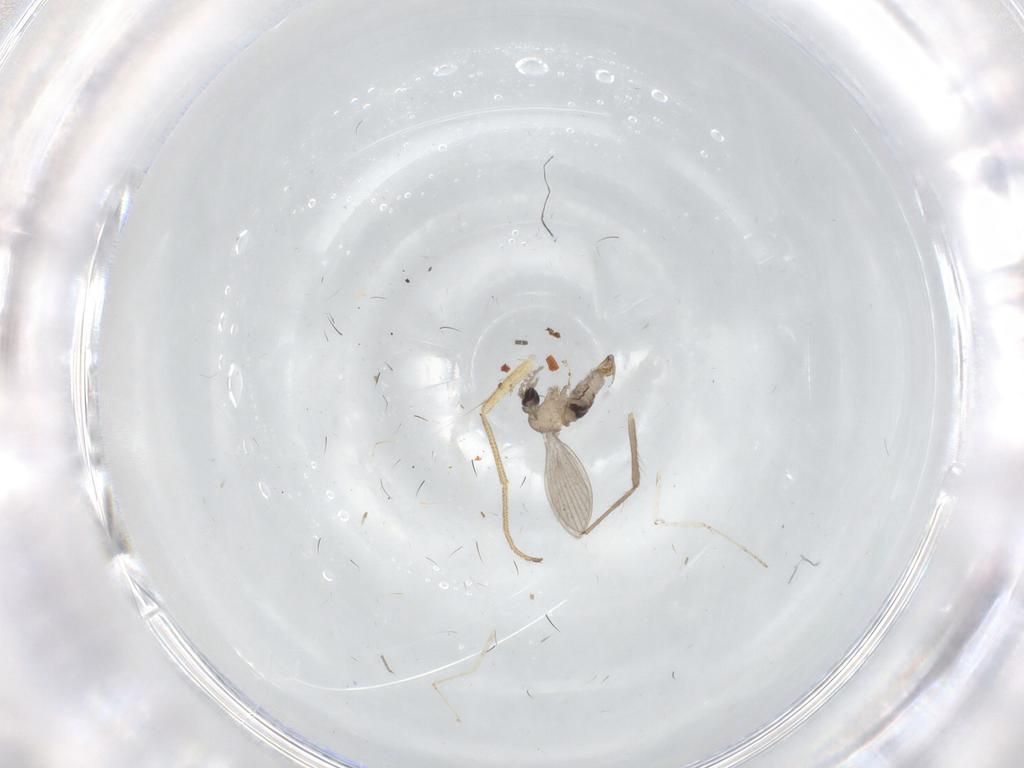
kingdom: Animalia
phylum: Arthropoda
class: Insecta
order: Diptera
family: Psychodidae
